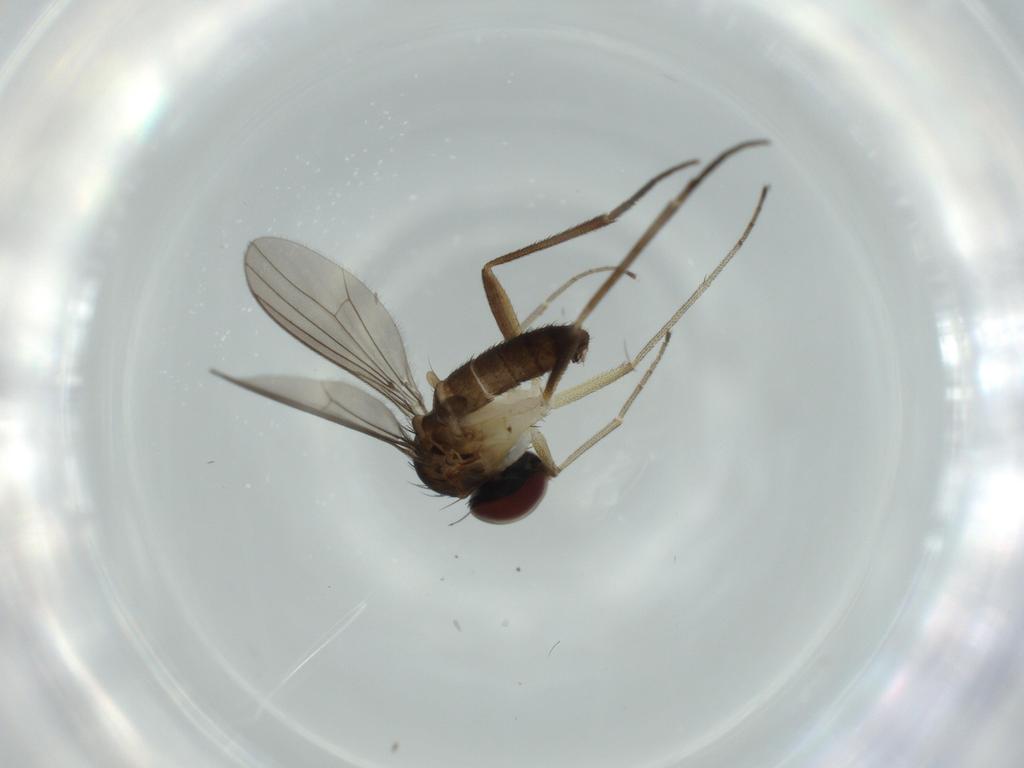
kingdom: Animalia
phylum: Arthropoda
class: Insecta
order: Diptera
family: Dolichopodidae
